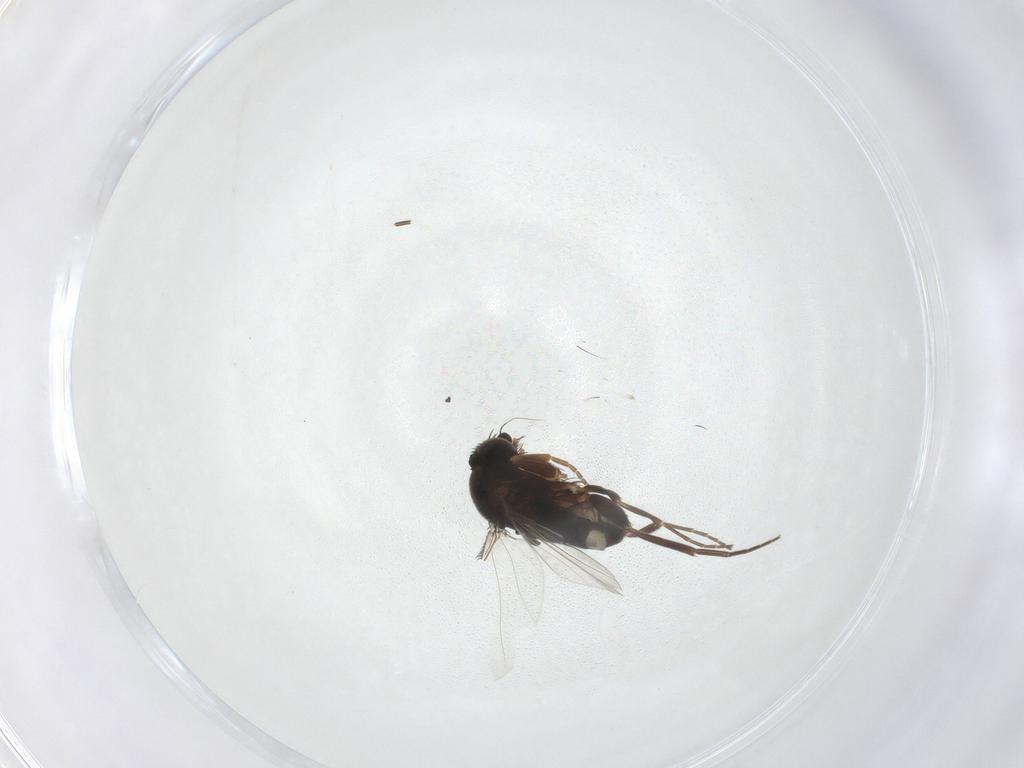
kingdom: Animalia
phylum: Arthropoda
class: Insecta
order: Diptera
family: Phoridae
